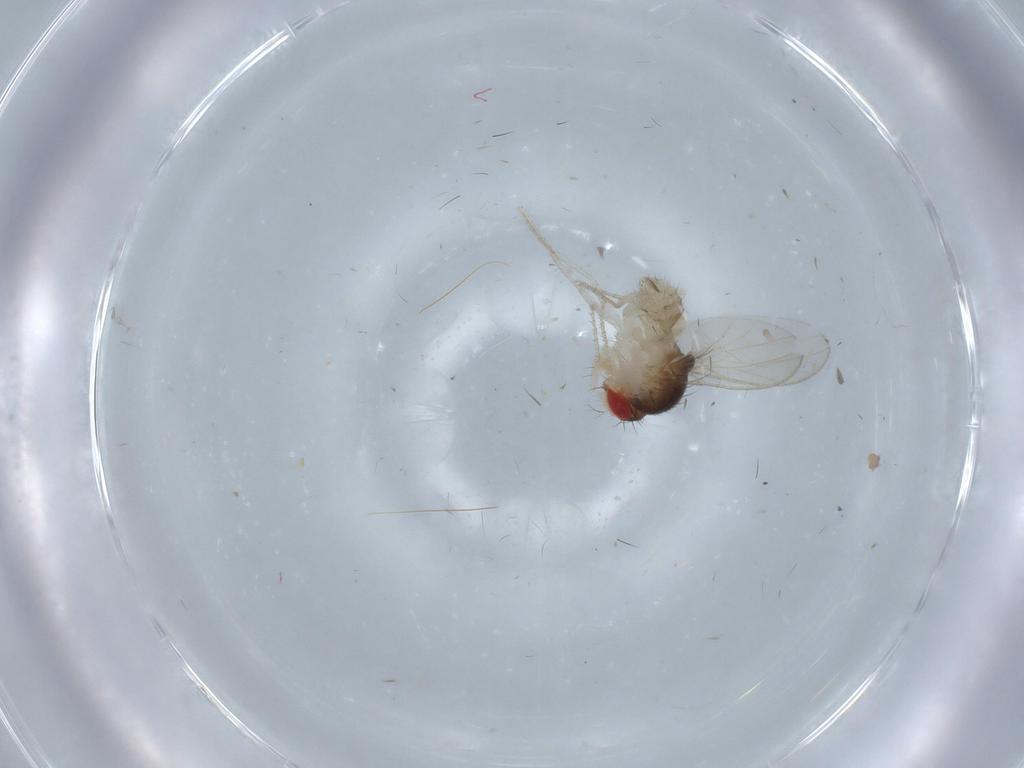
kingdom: Animalia
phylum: Arthropoda
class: Insecta
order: Diptera
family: Drosophilidae
